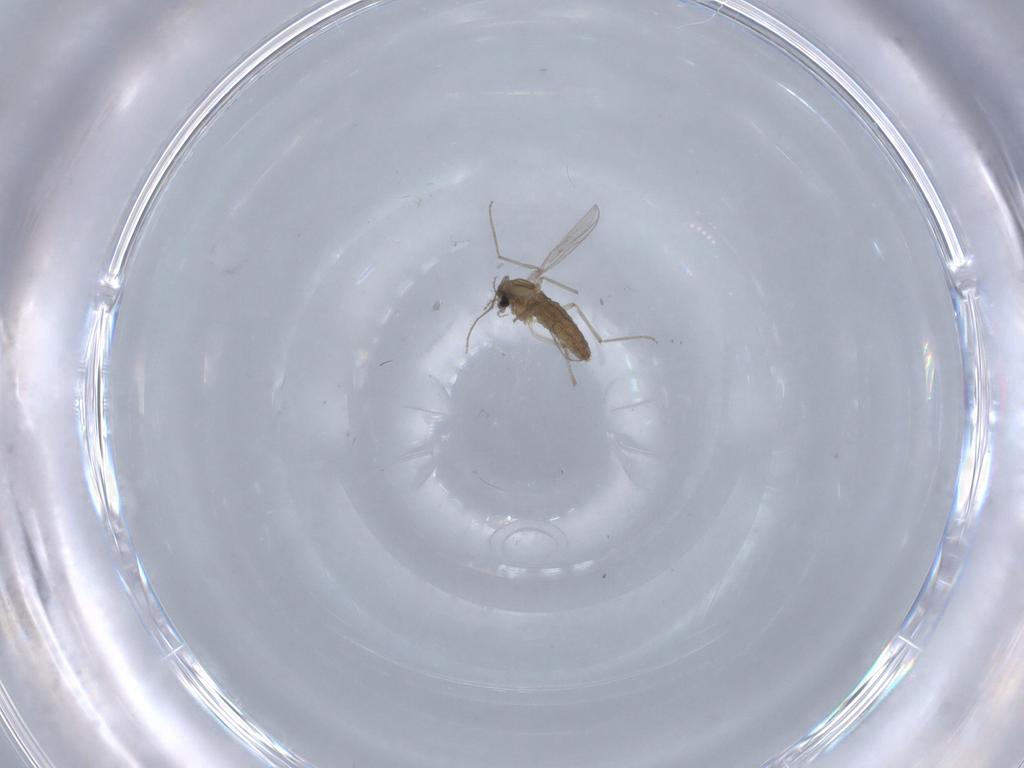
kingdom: Animalia
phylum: Arthropoda
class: Insecta
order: Diptera
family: Chironomidae
